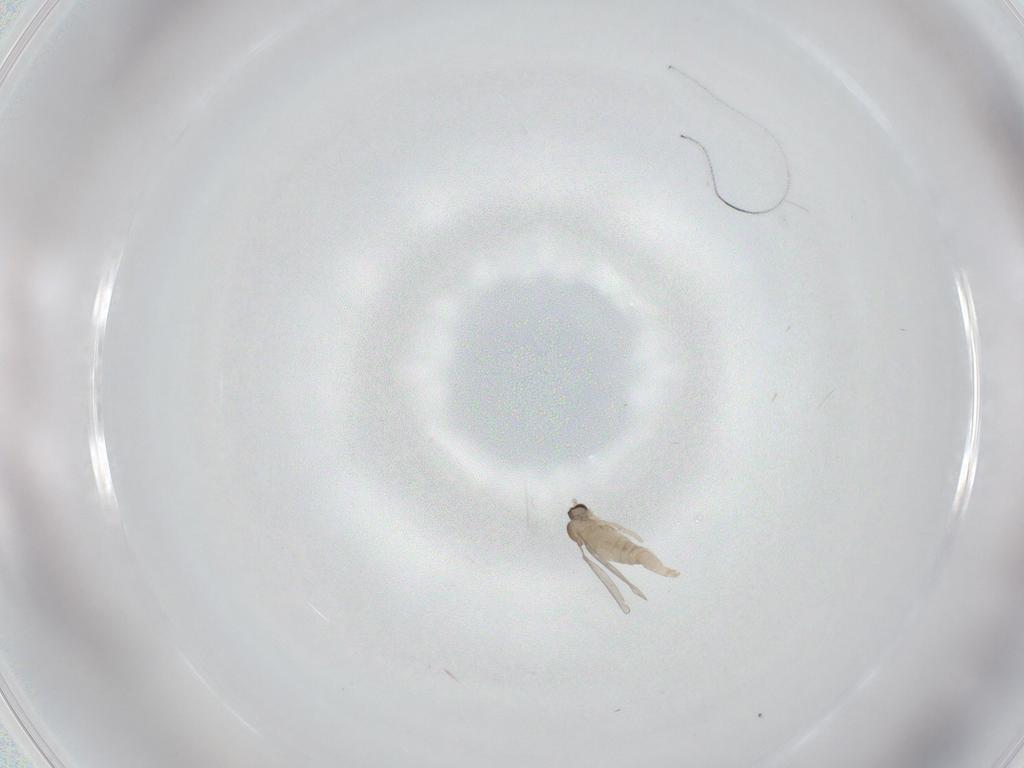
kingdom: Animalia
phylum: Arthropoda
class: Insecta
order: Diptera
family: Cecidomyiidae
